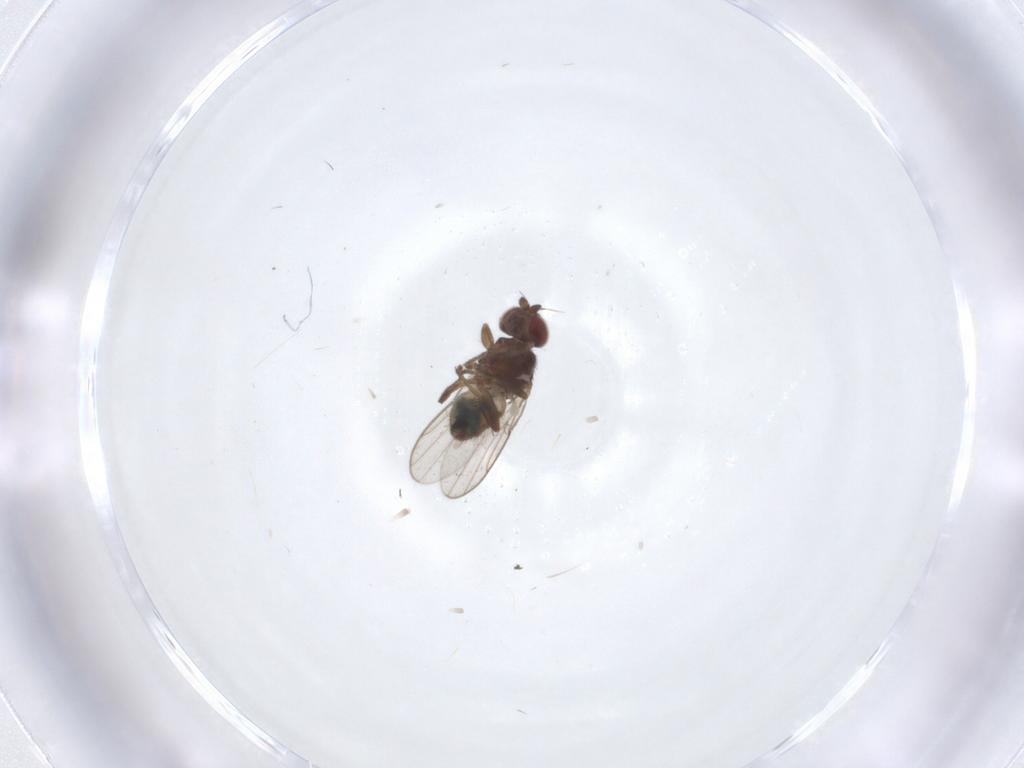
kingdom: Animalia
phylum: Arthropoda
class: Insecta
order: Diptera
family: Chloropidae
